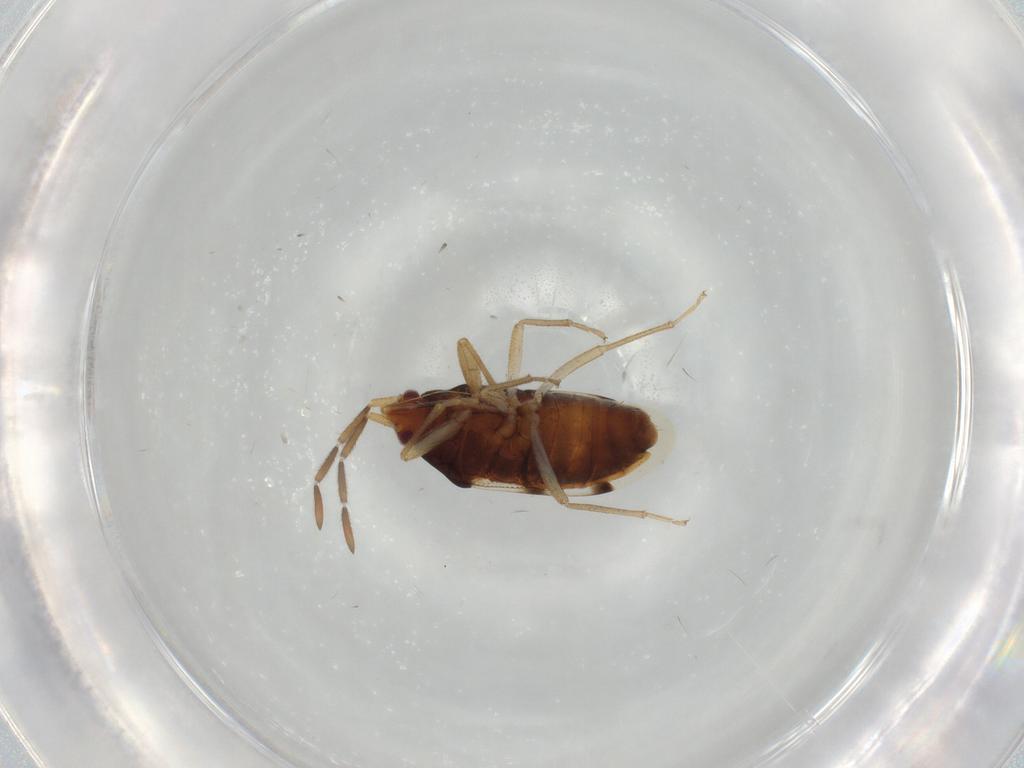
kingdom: Animalia
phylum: Arthropoda
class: Insecta
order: Hemiptera
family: Rhyparochromidae
